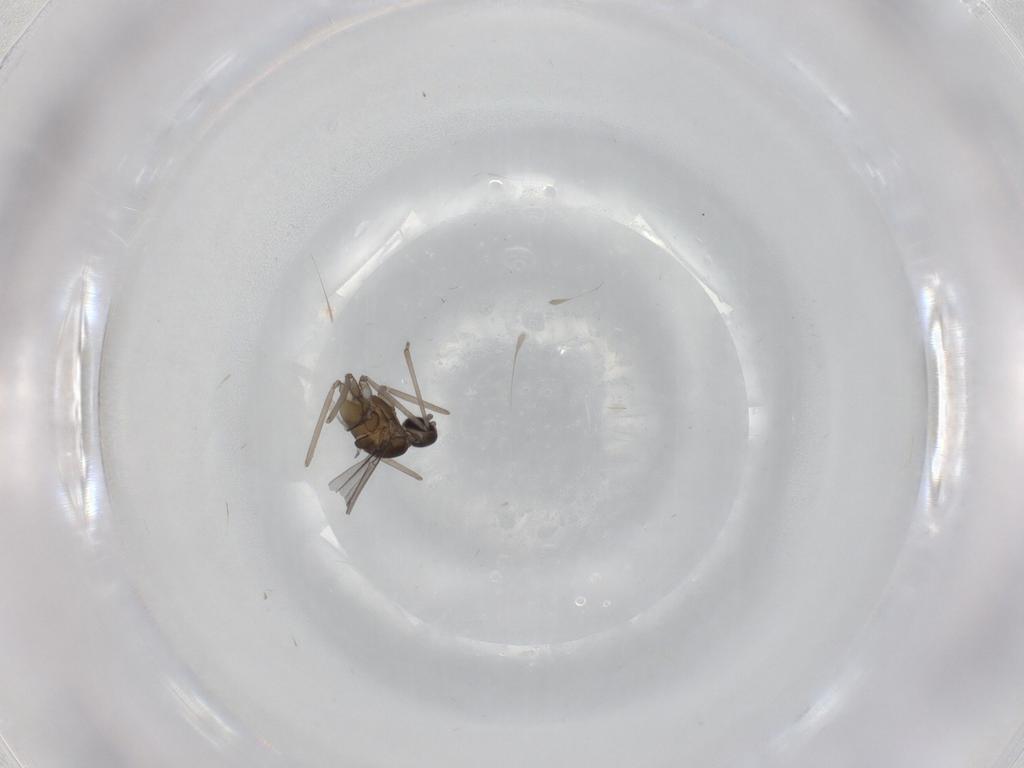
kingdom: Animalia
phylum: Arthropoda
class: Insecta
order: Diptera
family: Cecidomyiidae
